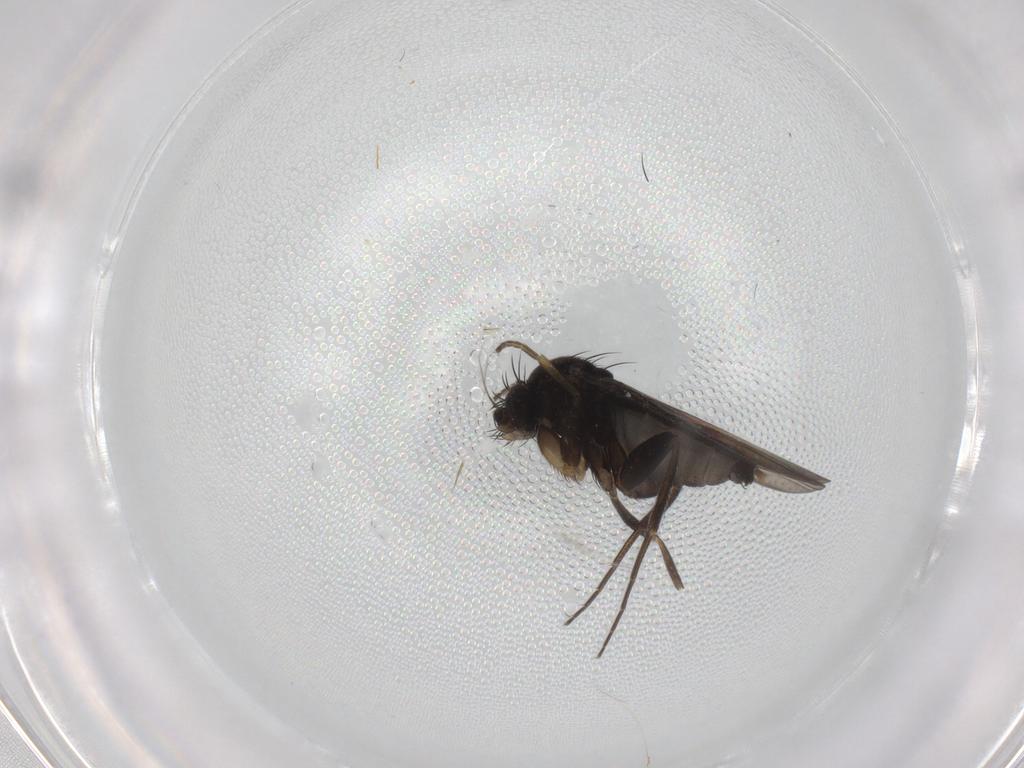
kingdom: Animalia
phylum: Arthropoda
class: Insecta
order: Diptera
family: Phoridae
